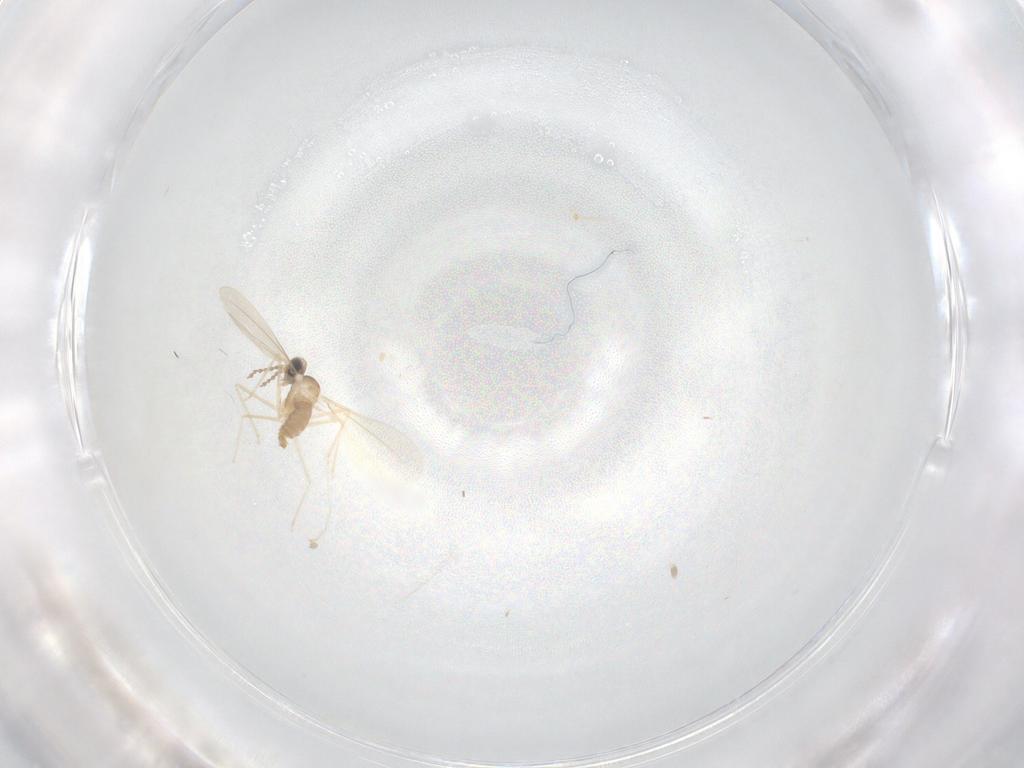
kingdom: Animalia
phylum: Arthropoda
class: Insecta
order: Diptera
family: Cecidomyiidae
